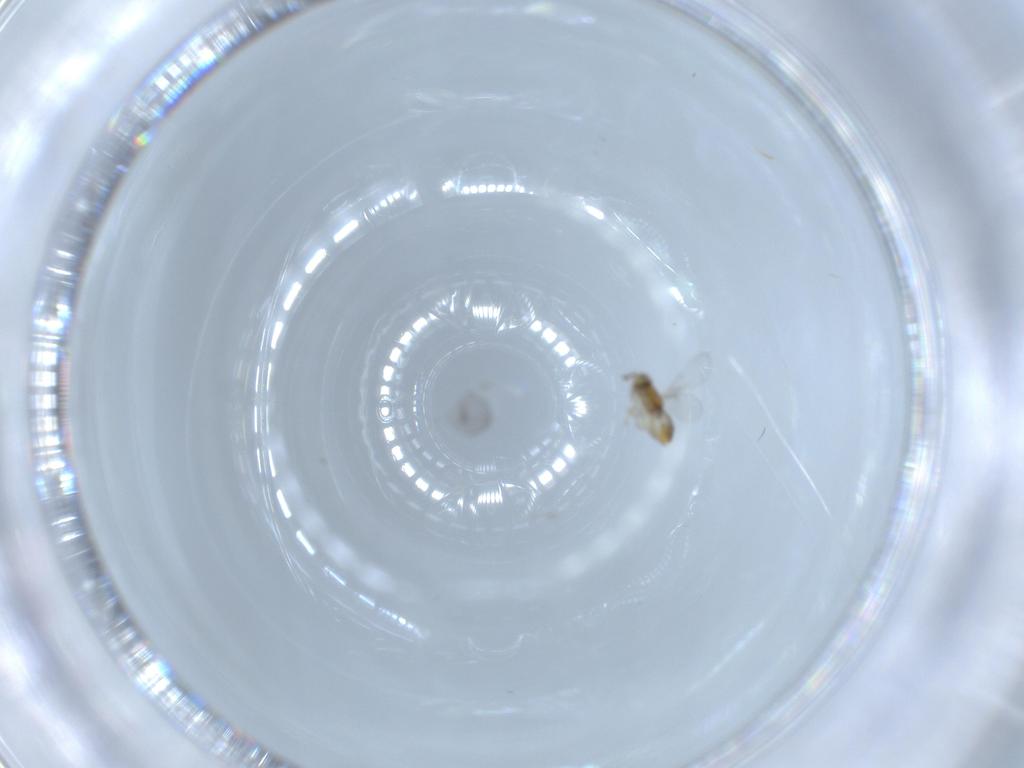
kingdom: Animalia
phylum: Arthropoda
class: Insecta
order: Hymenoptera
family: Encyrtidae
